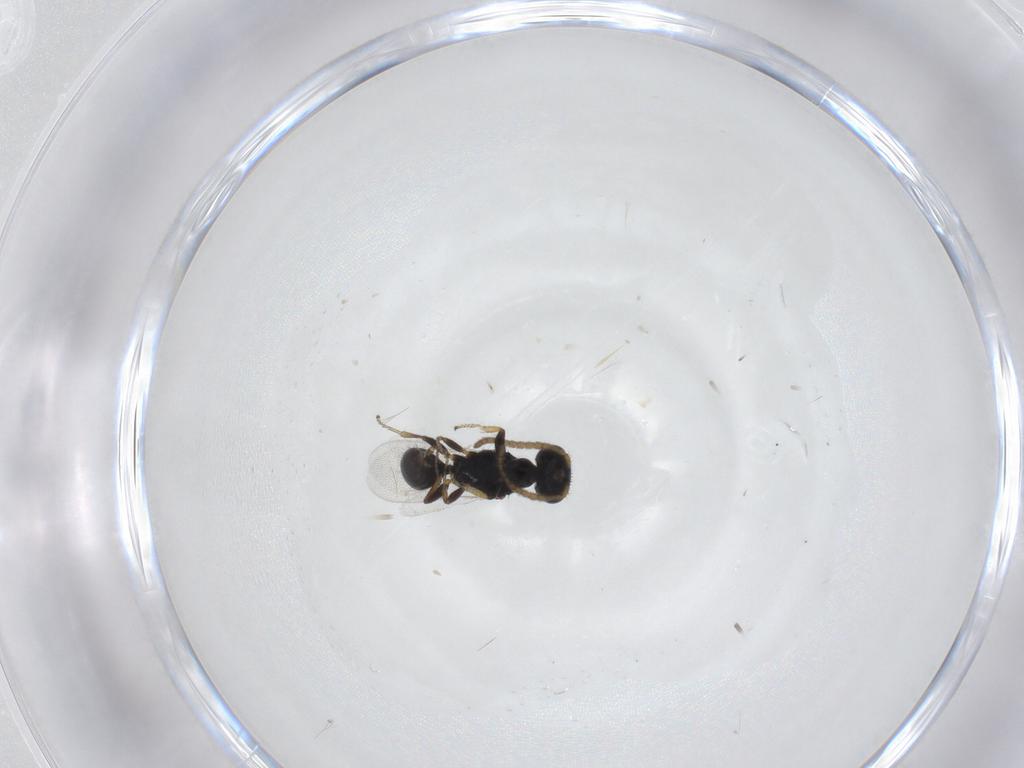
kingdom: Animalia
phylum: Arthropoda
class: Insecta
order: Hymenoptera
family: Bethylidae
